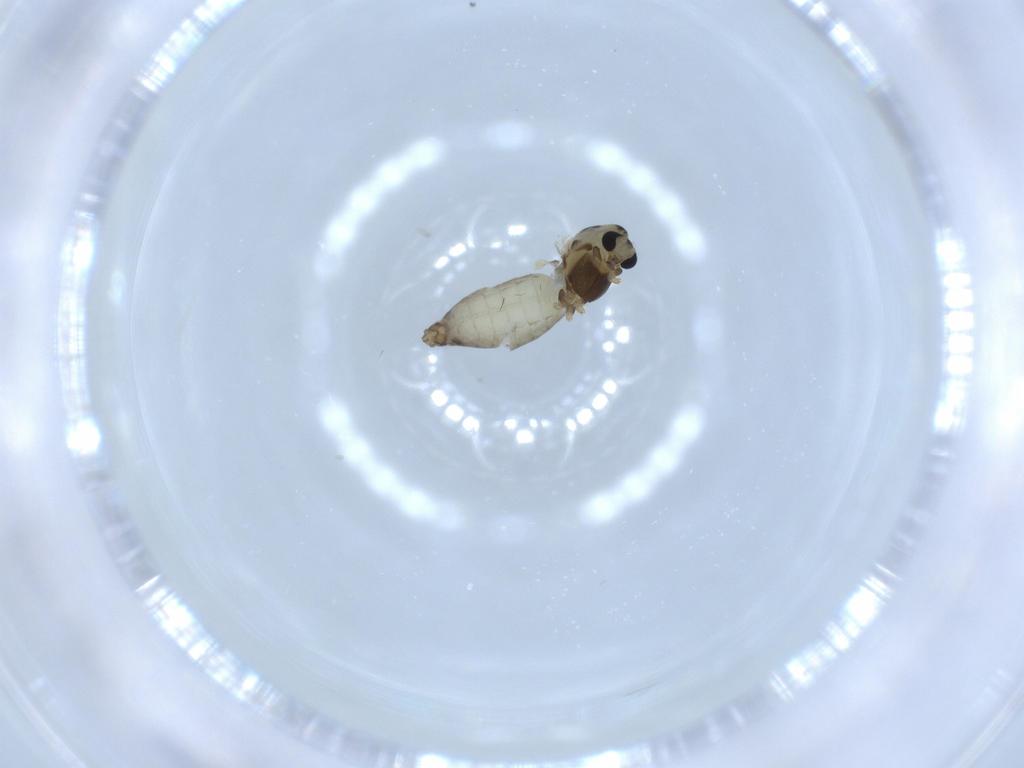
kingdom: Animalia
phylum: Arthropoda
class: Insecta
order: Diptera
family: Chironomidae
